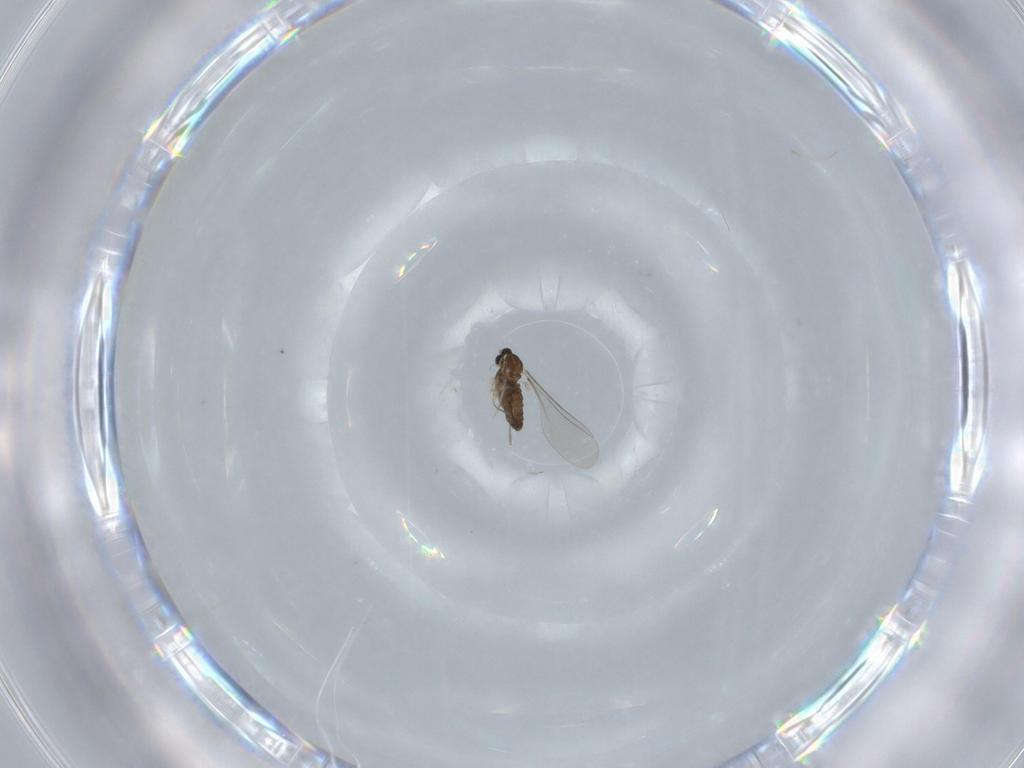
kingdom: Animalia
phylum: Arthropoda
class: Insecta
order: Diptera
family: Cecidomyiidae
